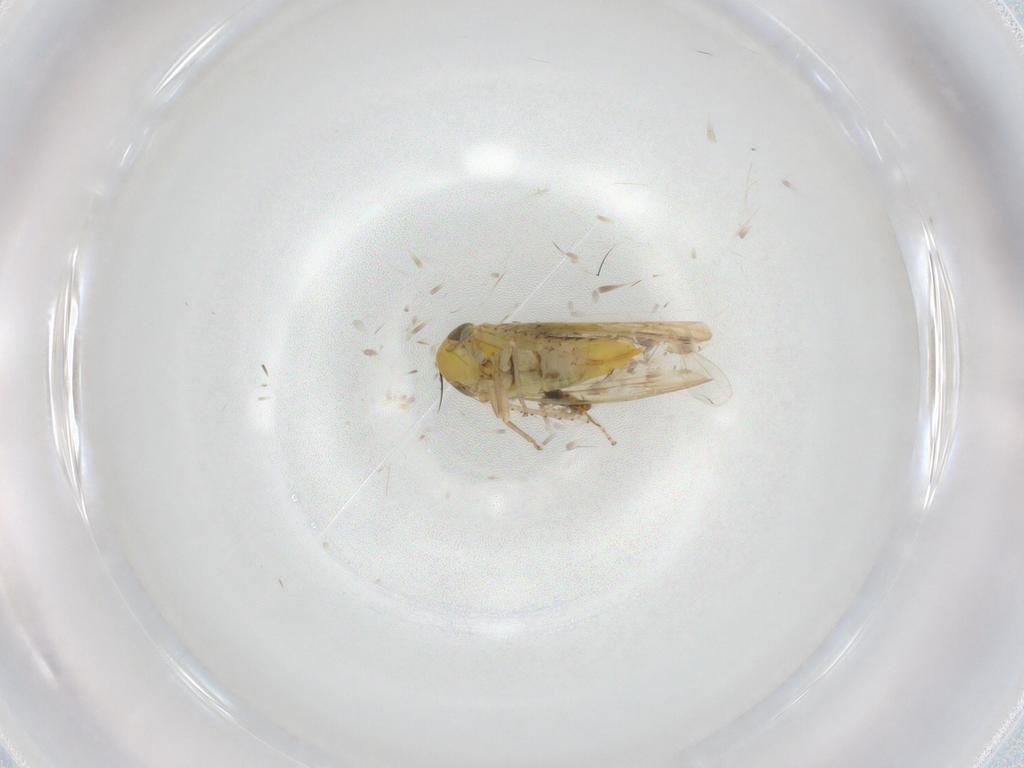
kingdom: Animalia
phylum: Arthropoda
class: Insecta
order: Hemiptera
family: Cicadellidae
